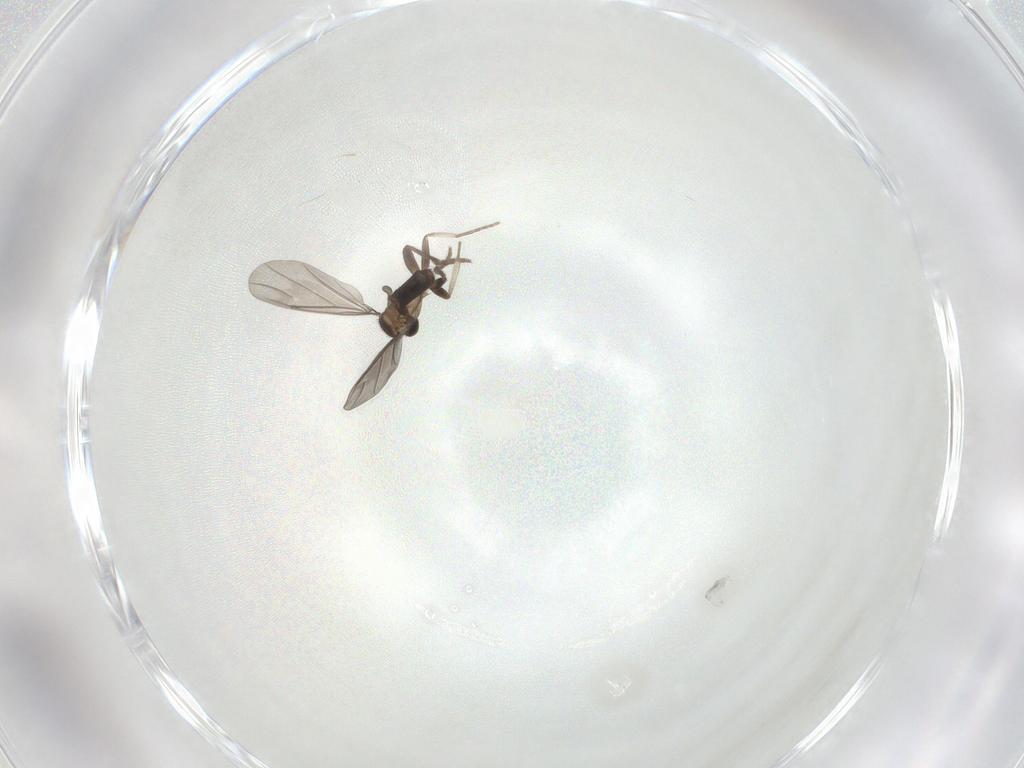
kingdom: Animalia
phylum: Arthropoda
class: Insecta
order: Diptera
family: Chironomidae
